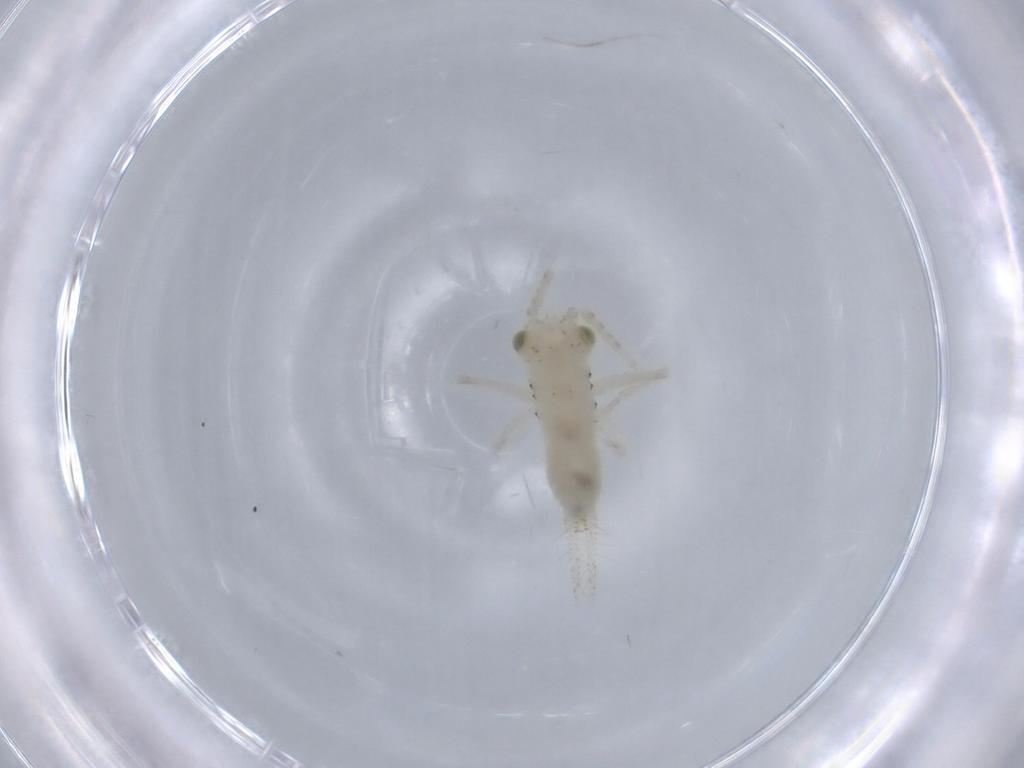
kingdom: Animalia
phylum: Arthropoda
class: Insecta
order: Orthoptera
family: Trigonidiidae
